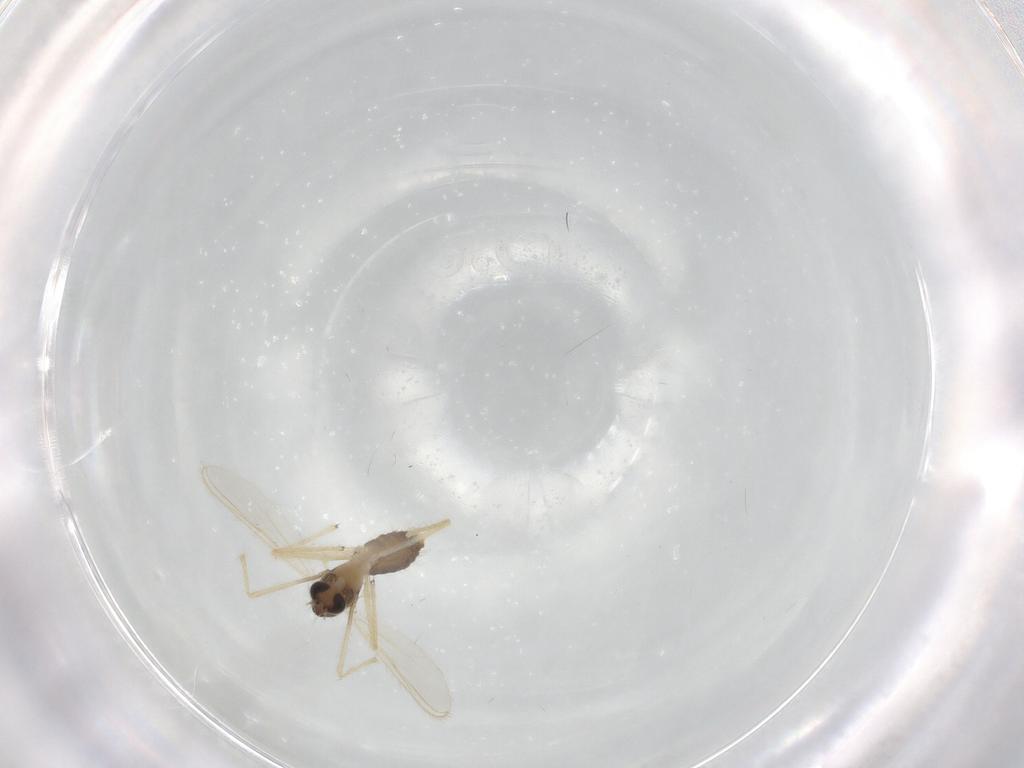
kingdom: Animalia
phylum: Arthropoda
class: Insecta
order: Diptera
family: Chironomidae
